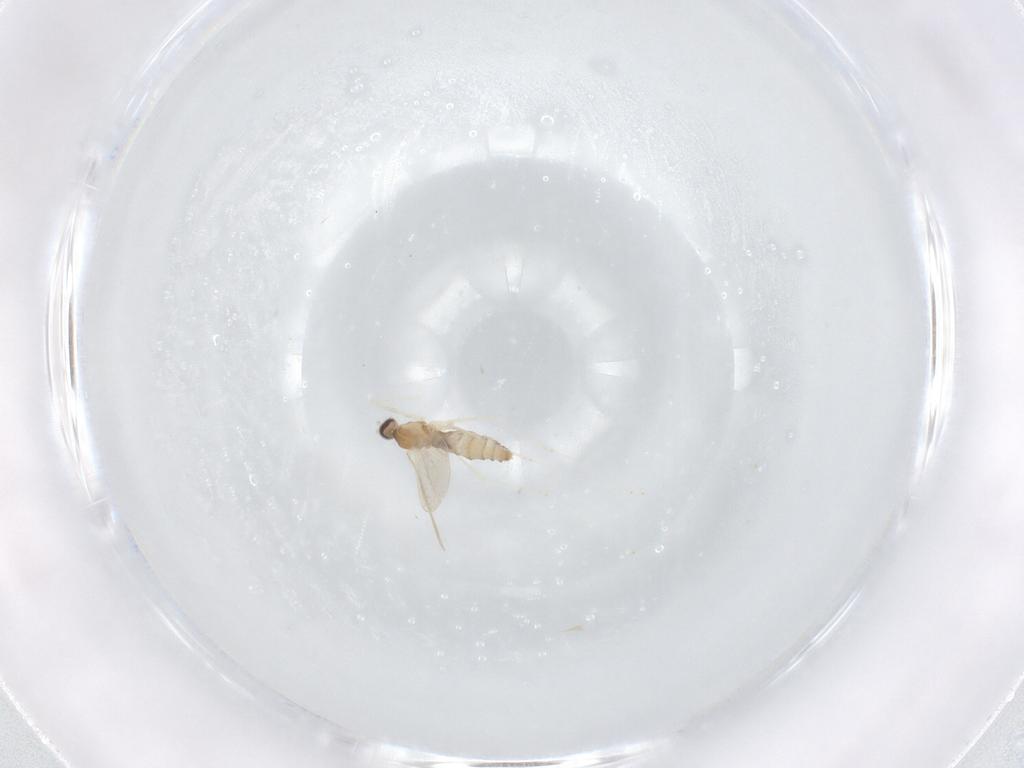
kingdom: Animalia
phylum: Arthropoda
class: Insecta
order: Diptera
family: Cecidomyiidae
